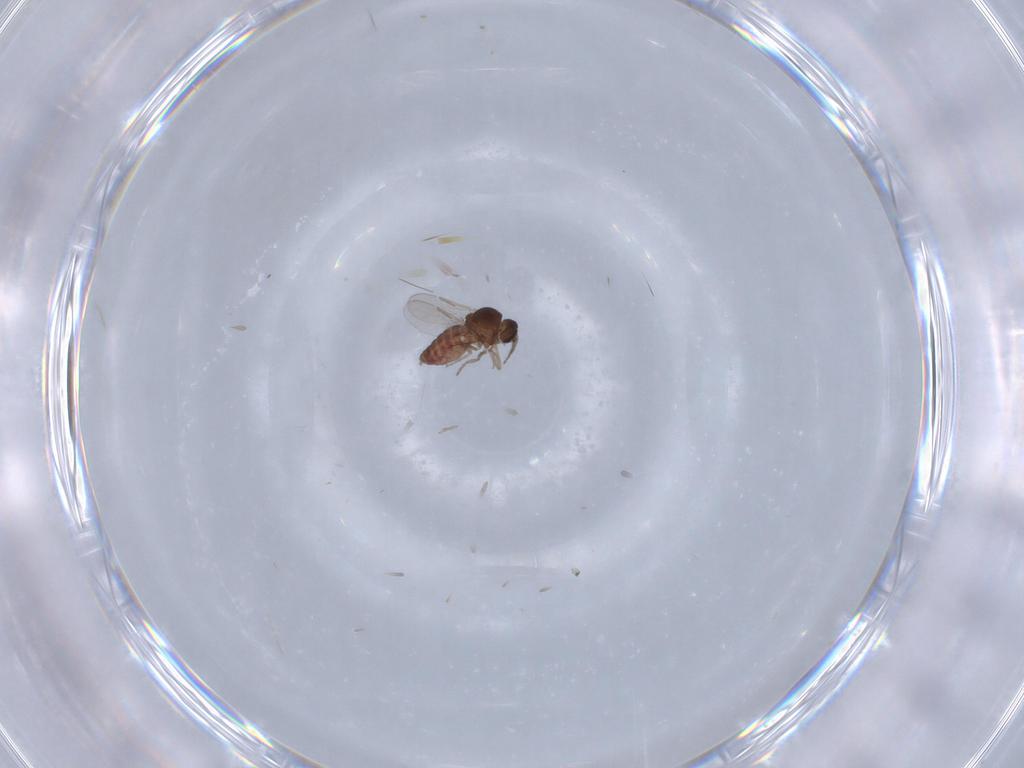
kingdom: Animalia
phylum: Arthropoda
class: Insecta
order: Diptera
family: Ceratopogonidae
